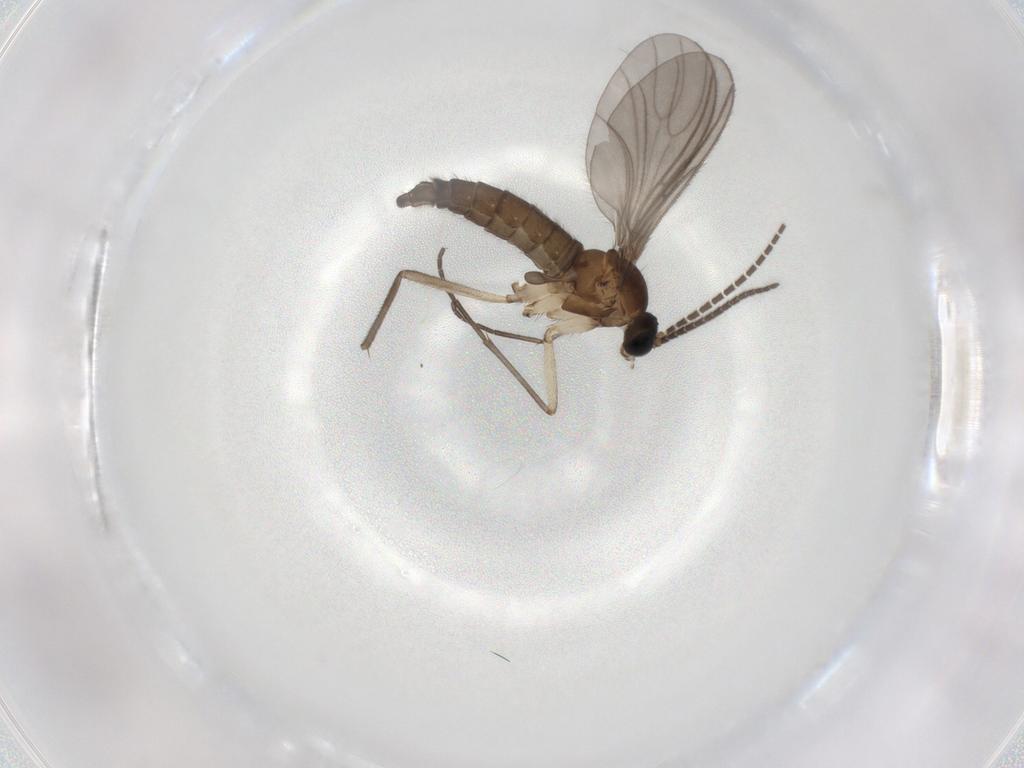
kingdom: Animalia
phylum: Arthropoda
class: Insecta
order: Diptera
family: Sciaridae
